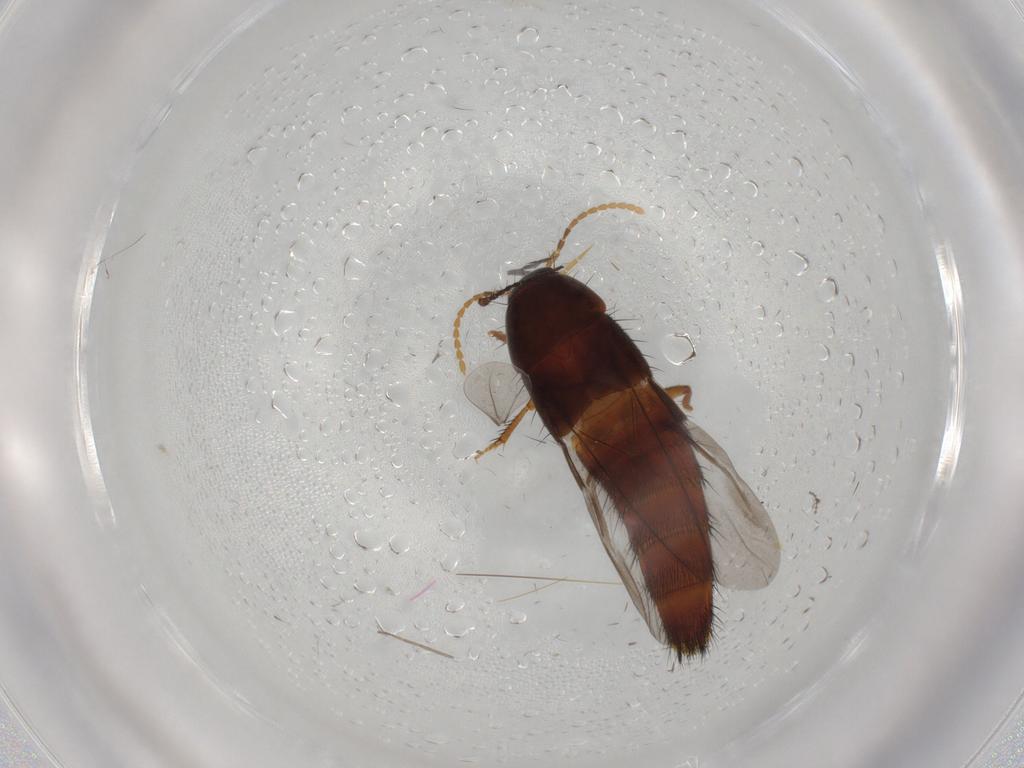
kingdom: Animalia
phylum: Arthropoda
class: Insecta
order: Coleoptera
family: Staphylinidae
